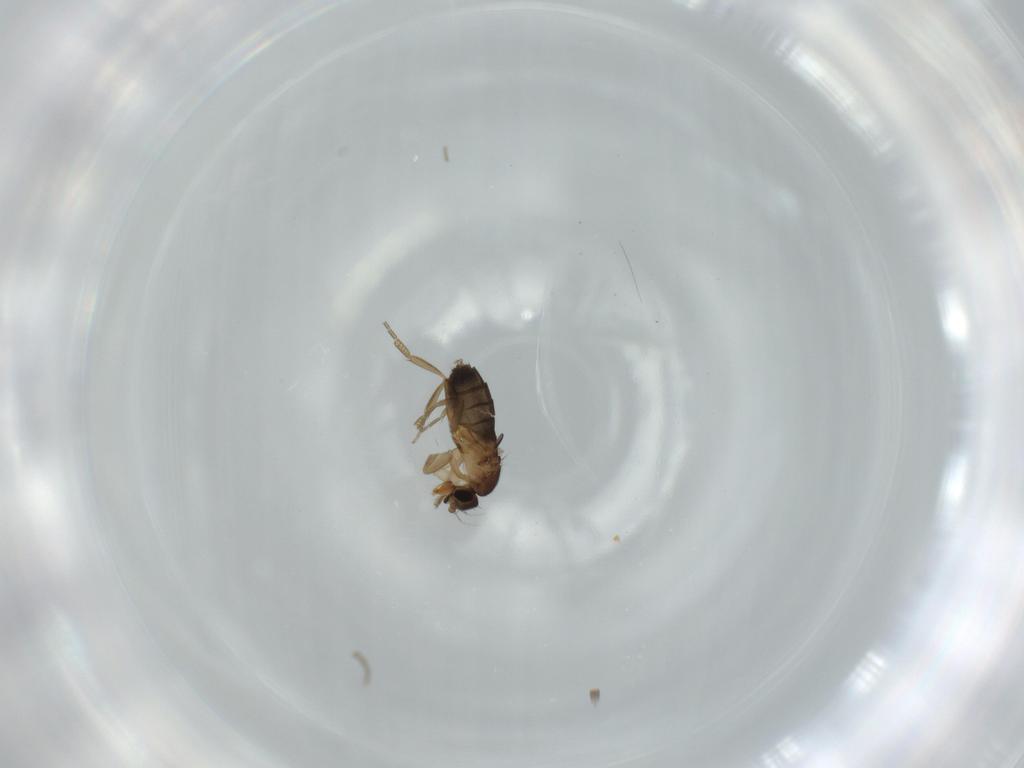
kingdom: Animalia
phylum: Arthropoda
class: Insecta
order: Diptera
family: Phoridae
